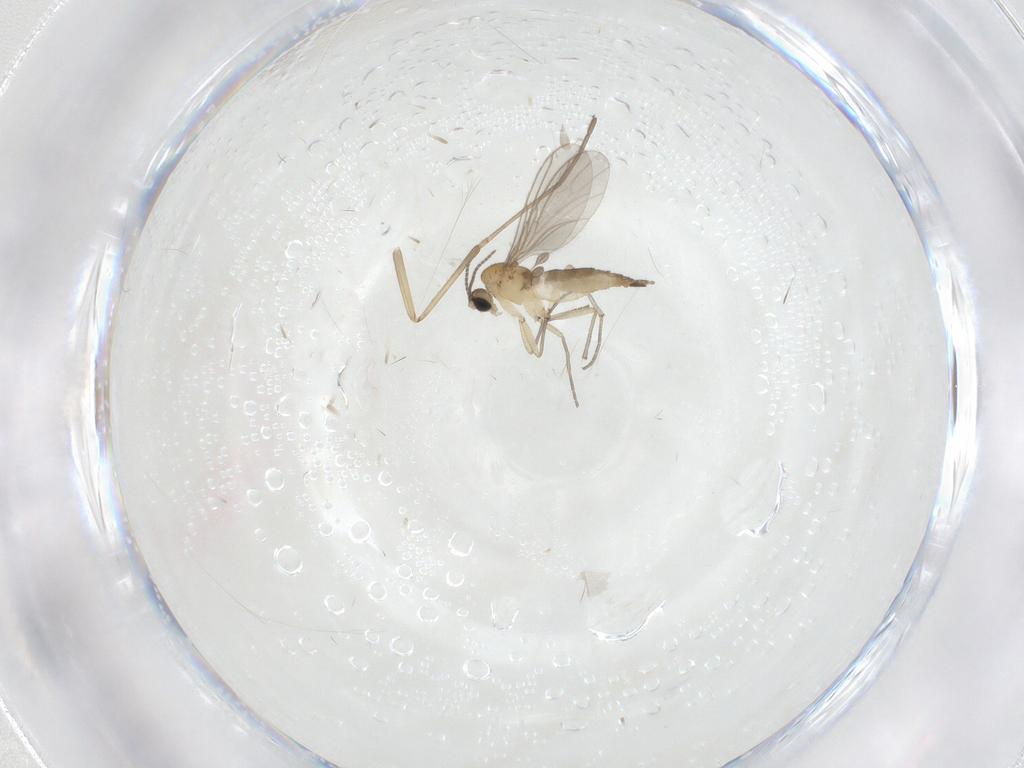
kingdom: Animalia
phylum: Arthropoda
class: Insecta
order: Diptera
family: Cecidomyiidae
